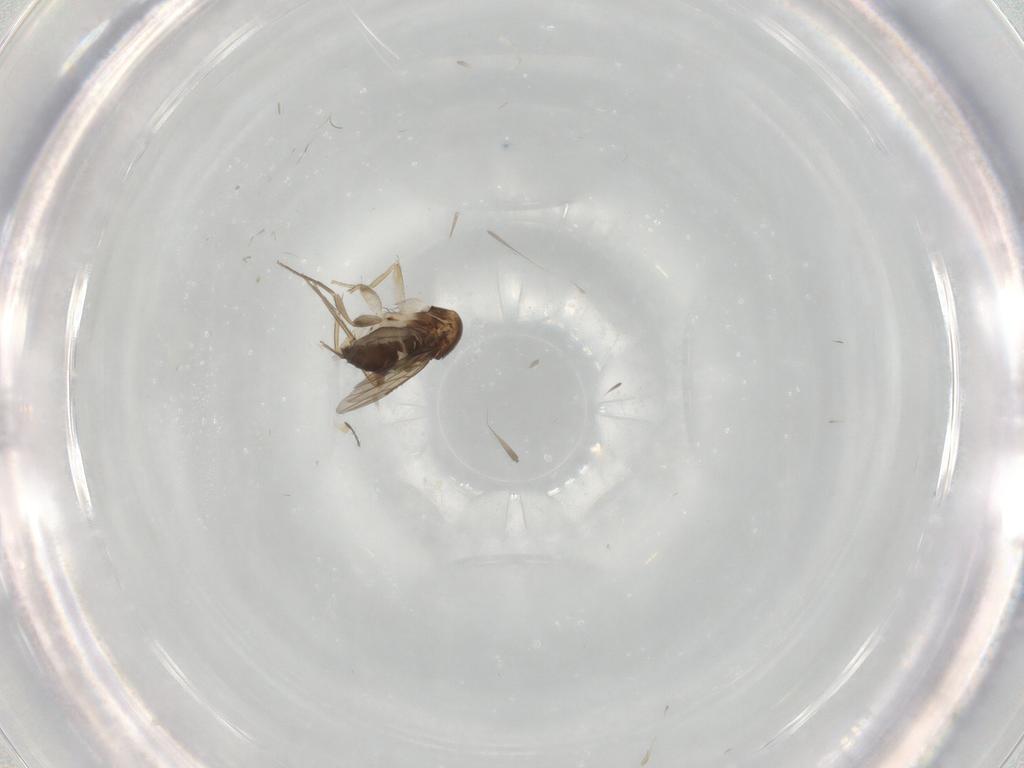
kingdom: Animalia
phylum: Arthropoda
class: Insecta
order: Diptera
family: Phoridae
